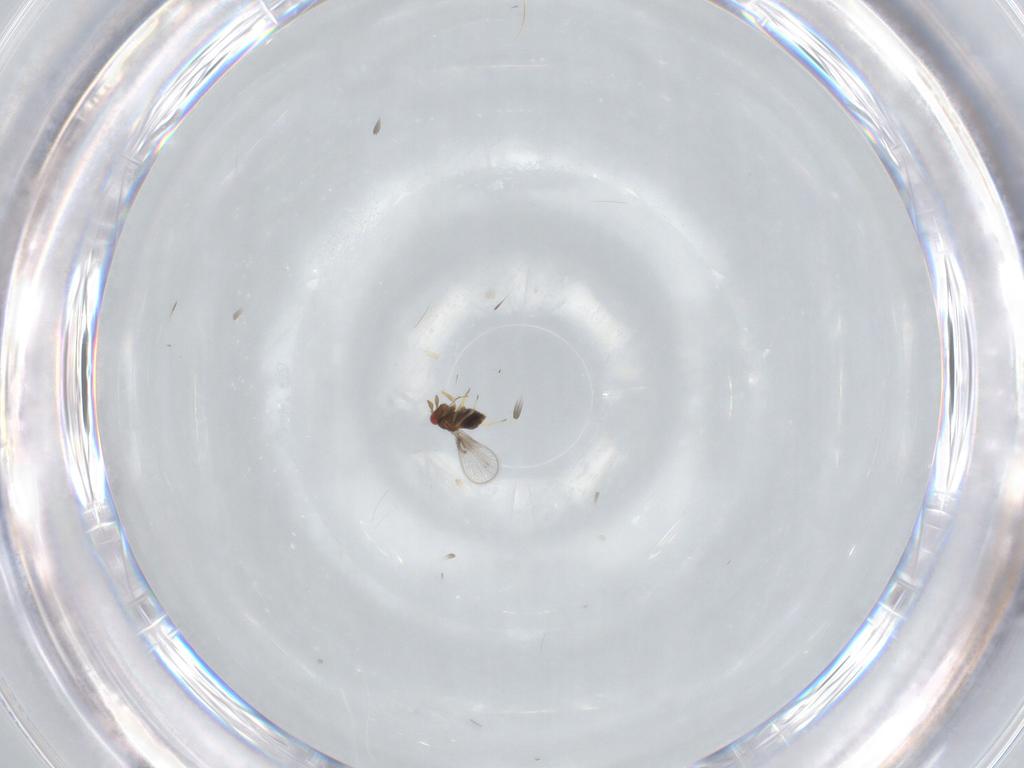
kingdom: Animalia
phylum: Arthropoda
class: Insecta
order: Hymenoptera
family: Trichogrammatidae
